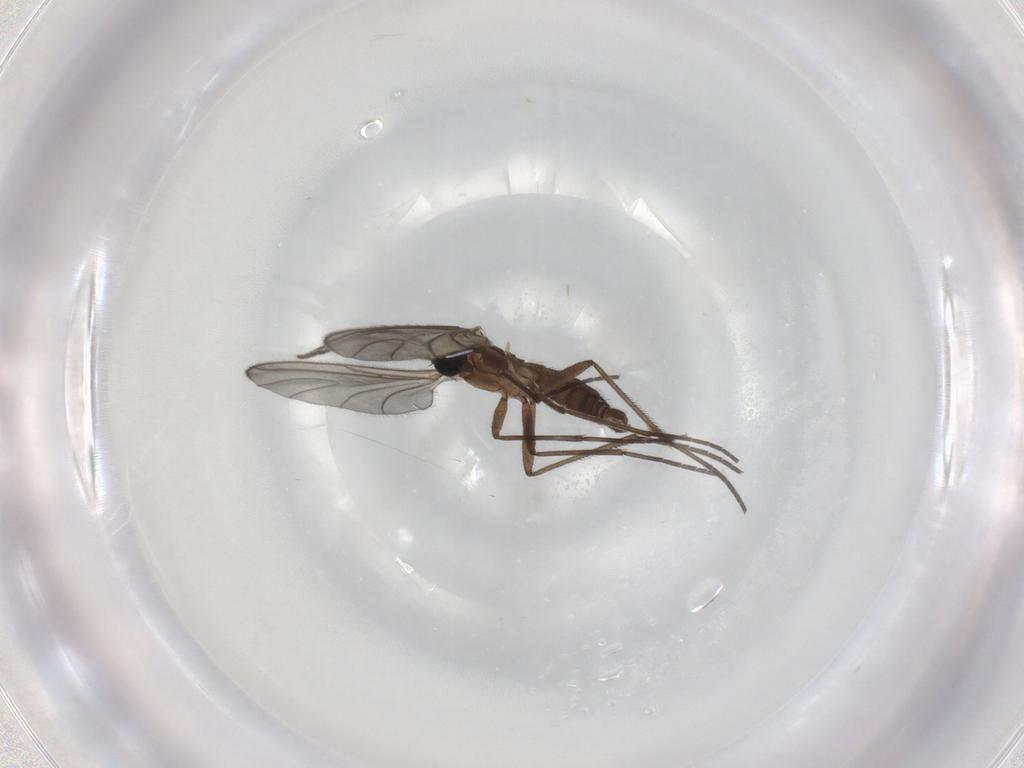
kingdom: Animalia
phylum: Arthropoda
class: Insecta
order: Diptera
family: Sciaridae
